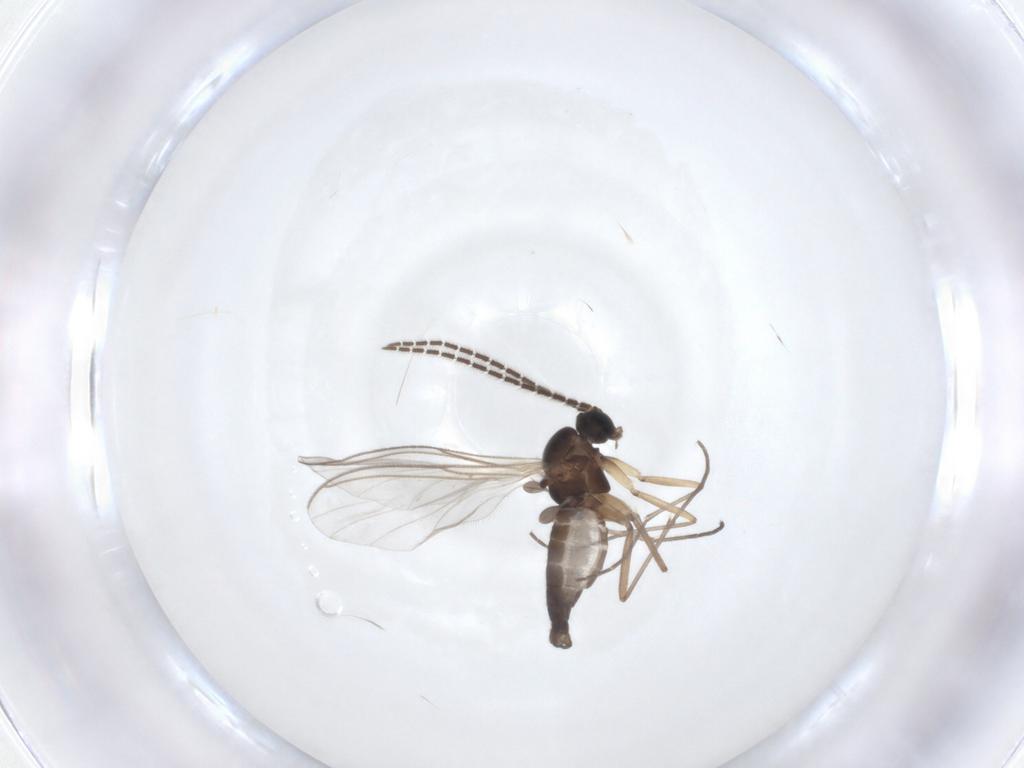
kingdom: Animalia
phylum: Arthropoda
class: Insecta
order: Diptera
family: Sciaridae
